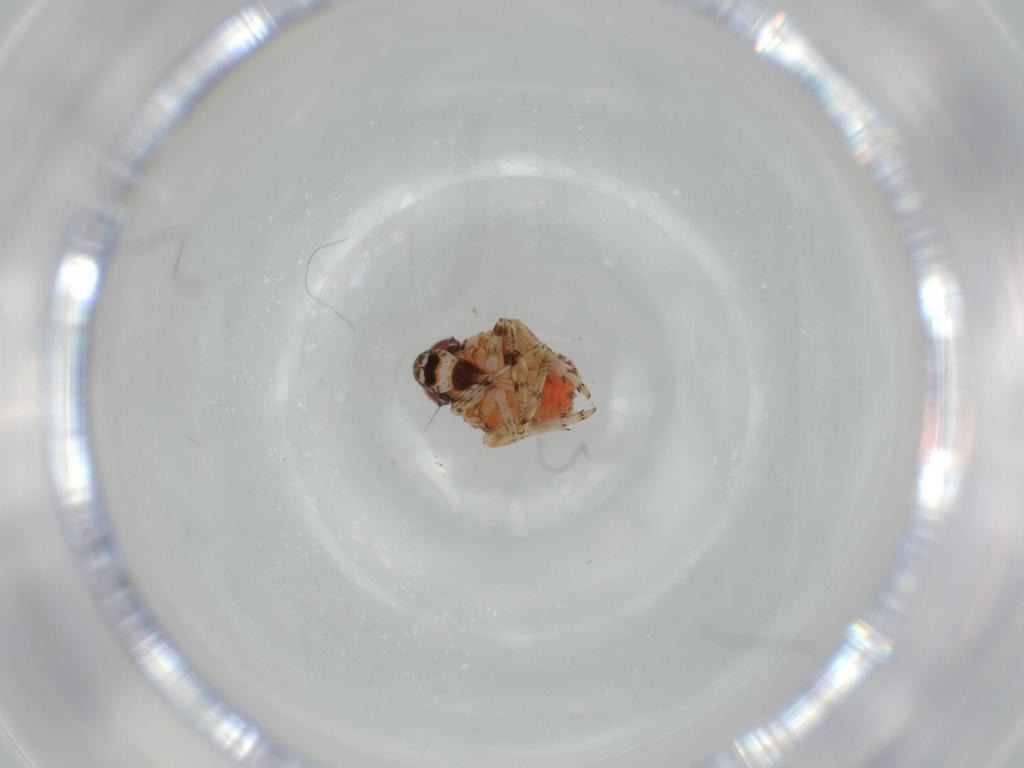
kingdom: Animalia
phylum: Arthropoda
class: Insecta
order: Hemiptera
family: Issidae
